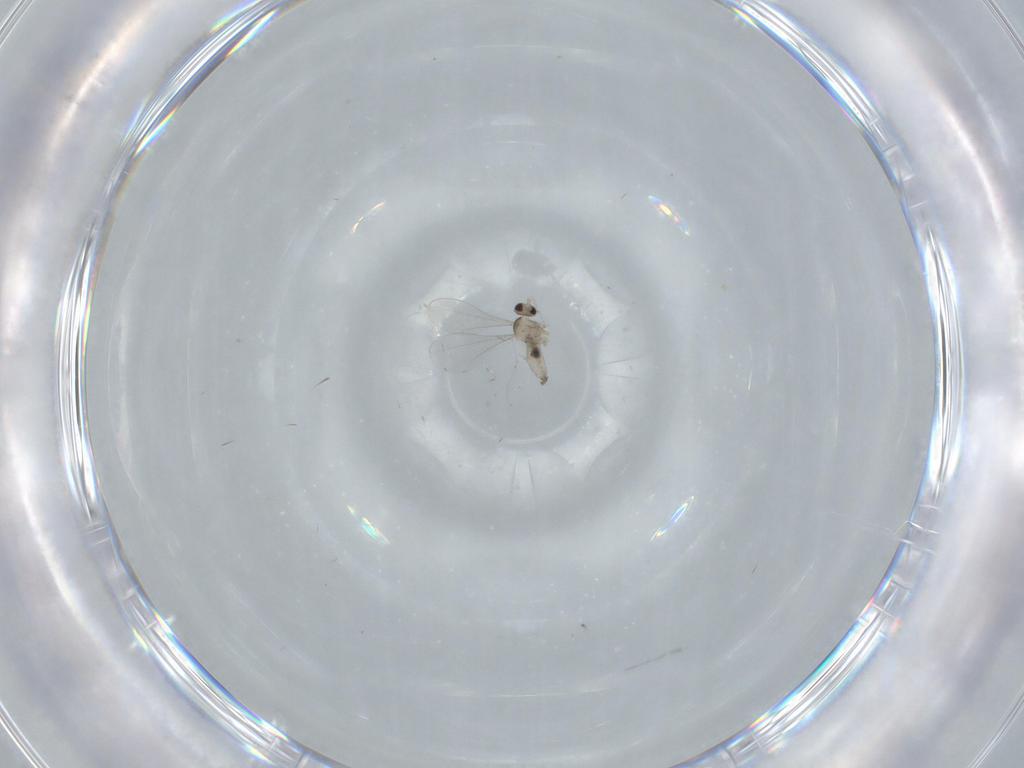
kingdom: Animalia
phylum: Arthropoda
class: Insecta
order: Diptera
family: Cecidomyiidae
